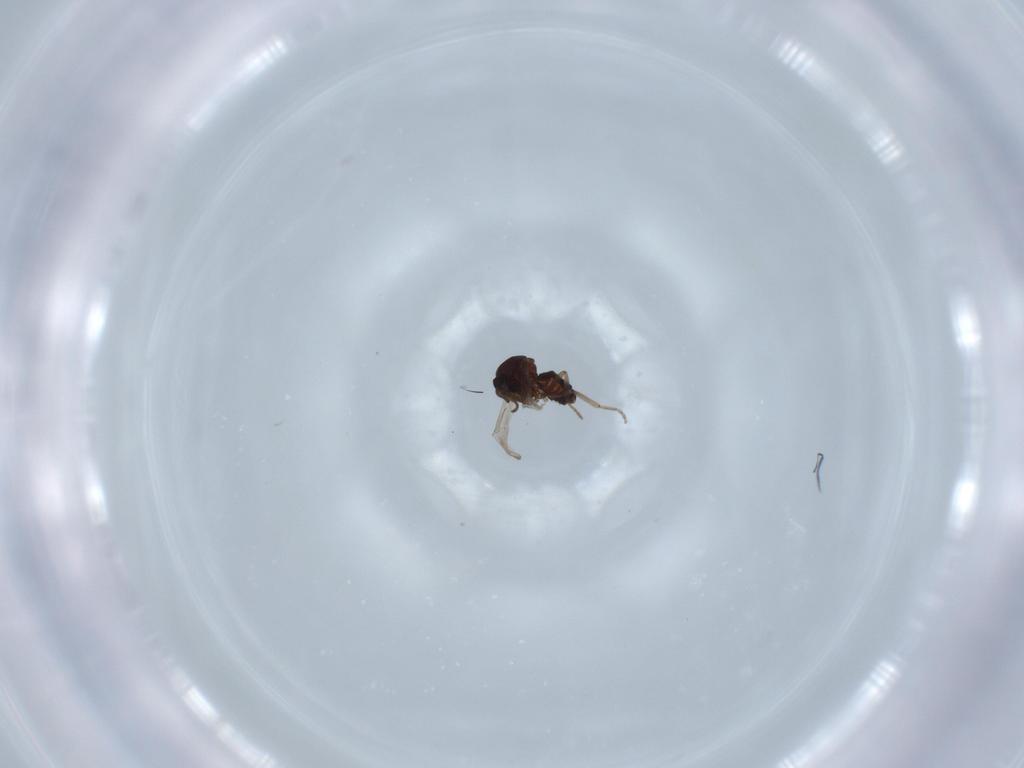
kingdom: Animalia
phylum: Arthropoda
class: Insecta
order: Diptera
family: Ceratopogonidae
